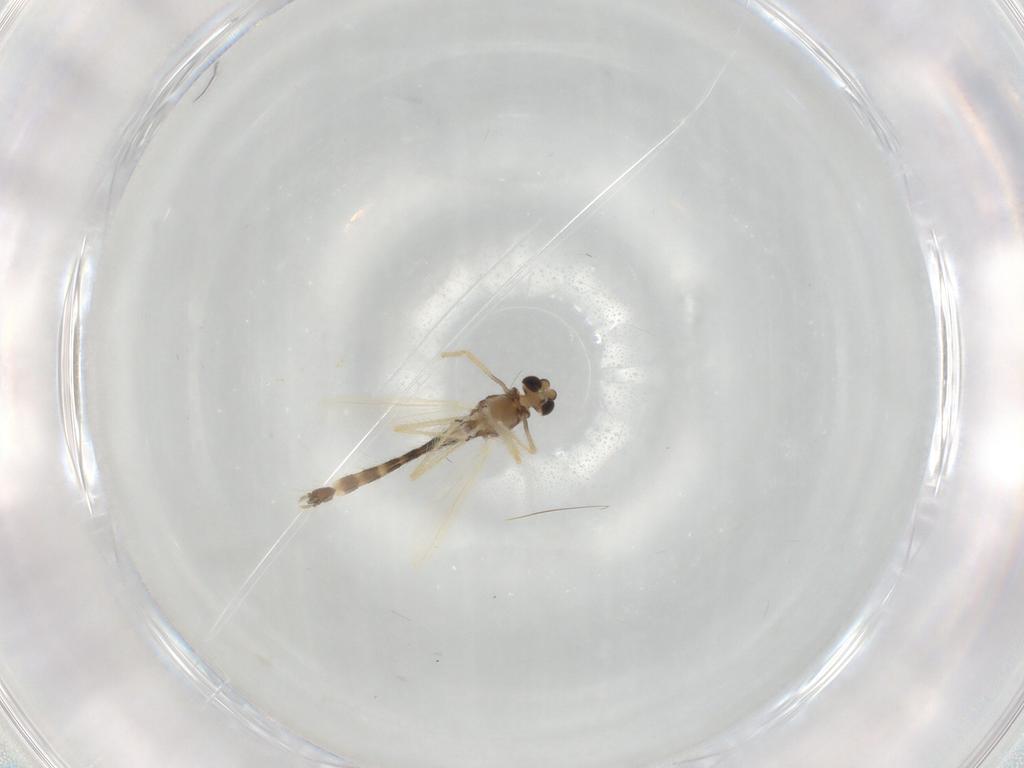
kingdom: Animalia
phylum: Arthropoda
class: Insecta
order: Diptera
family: Chironomidae
